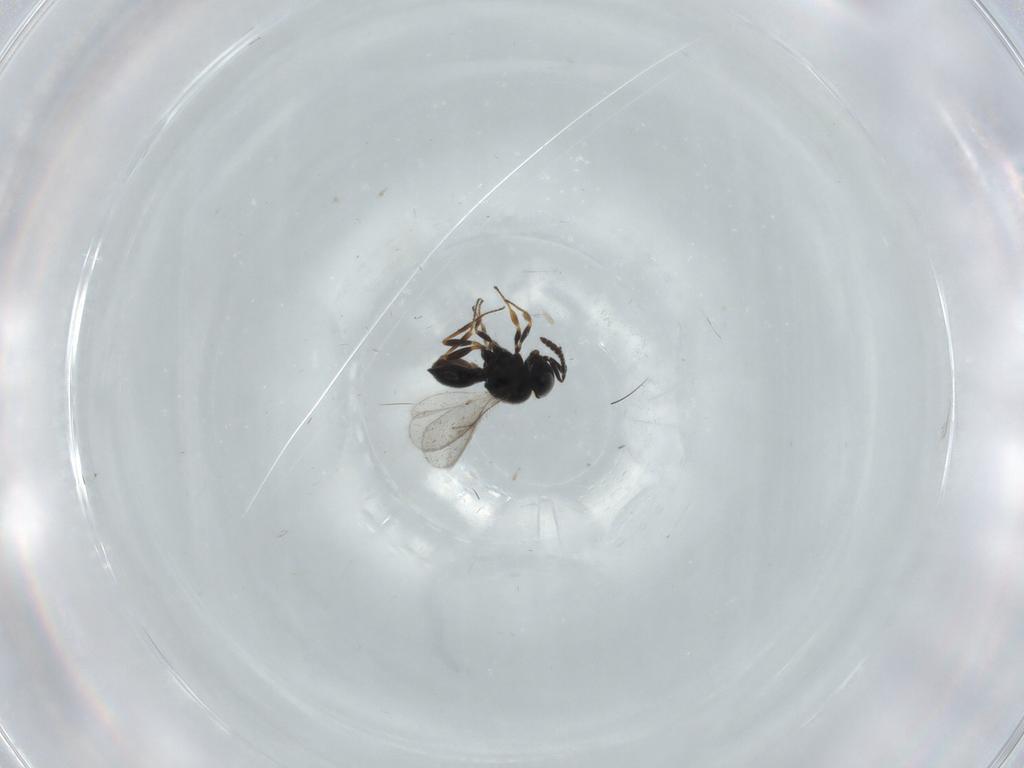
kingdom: Animalia
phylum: Arthropoda
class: Insecta
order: Hymenoptera
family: Scelionidae
